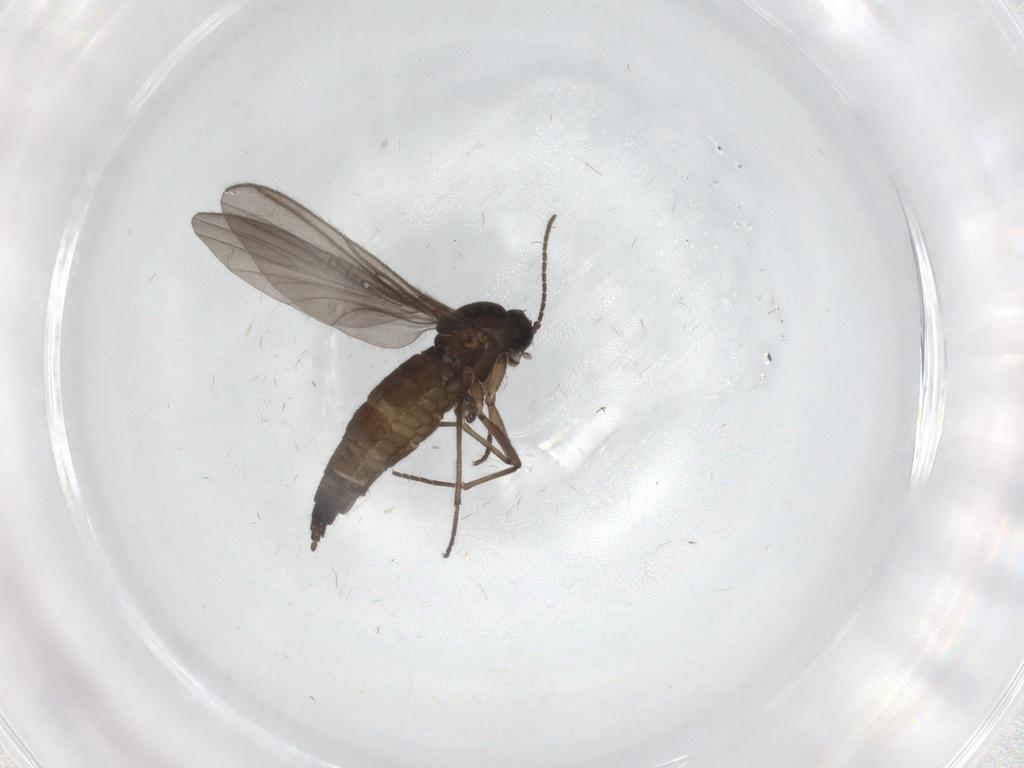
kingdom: Animalia
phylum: Arthropoda
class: Insecta
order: Diptera
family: Sciaridae
